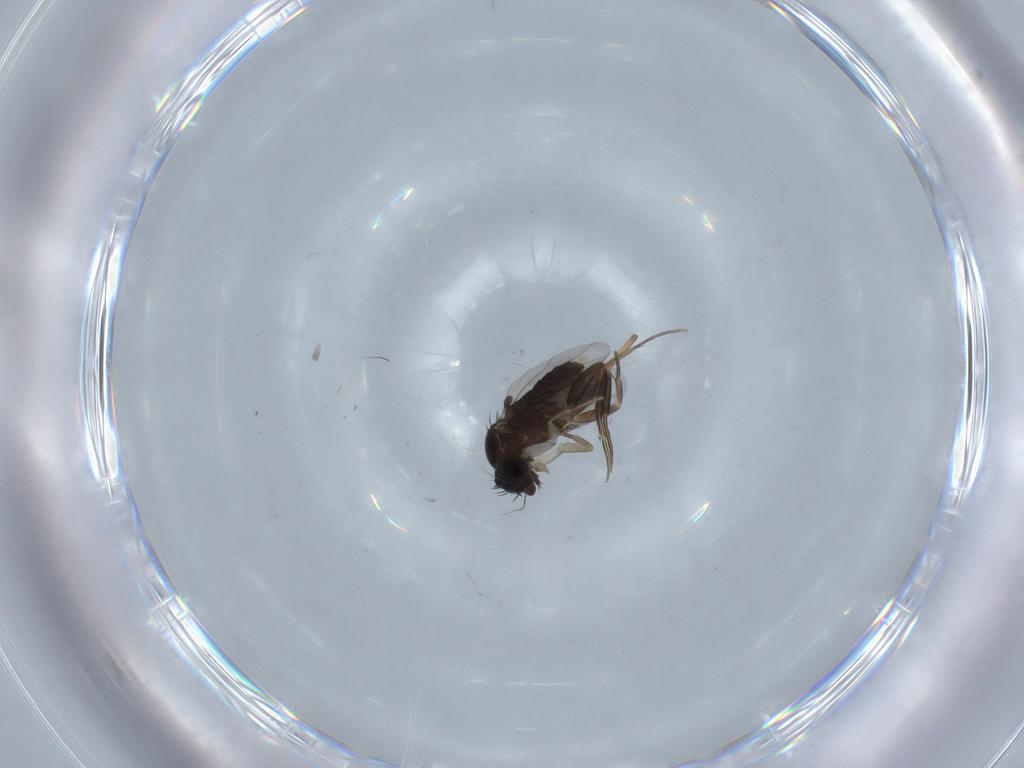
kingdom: Animalia
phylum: Arthropoda
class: Insecta
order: Diptera
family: Phoridae
